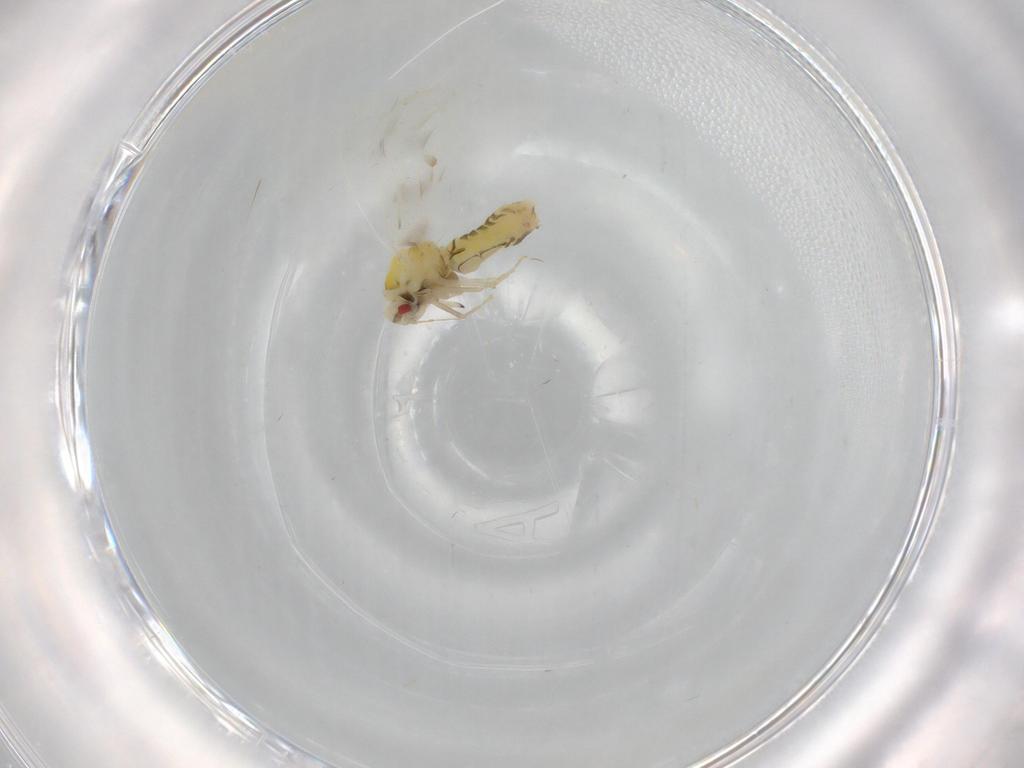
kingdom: Animalia
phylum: Arthropoda
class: Insecta
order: Hemiptera
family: Aleyrodidae
